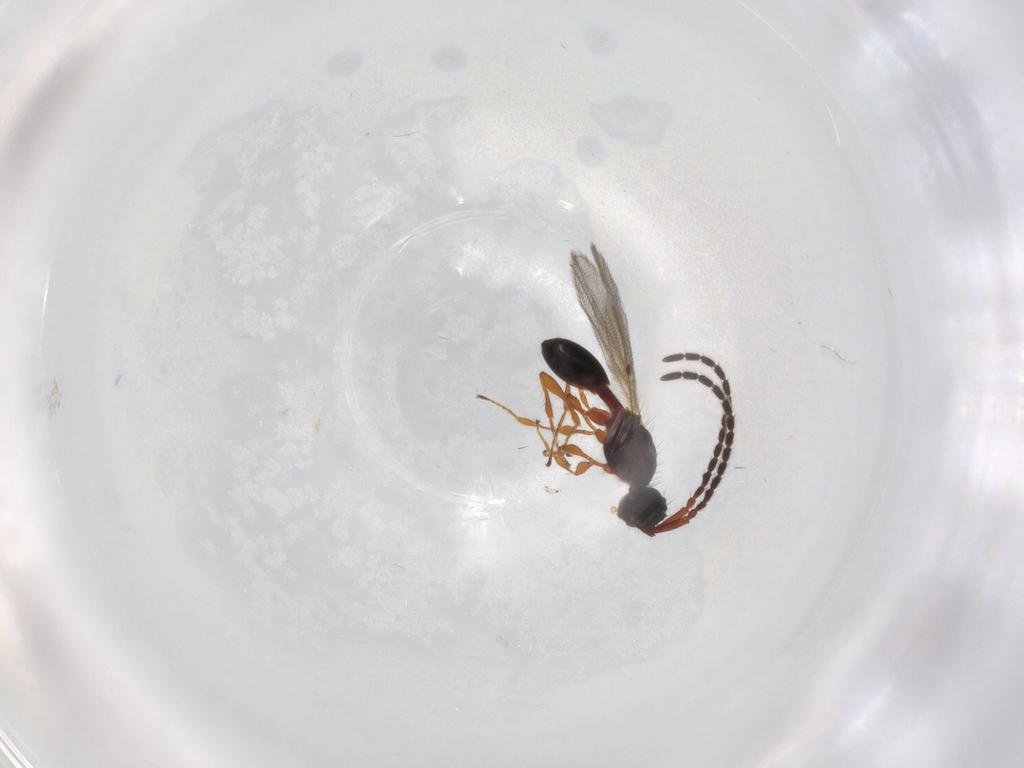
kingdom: Animalia
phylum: Arthropoda
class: Insecta
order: Hymenoptera
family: Diapriidae
